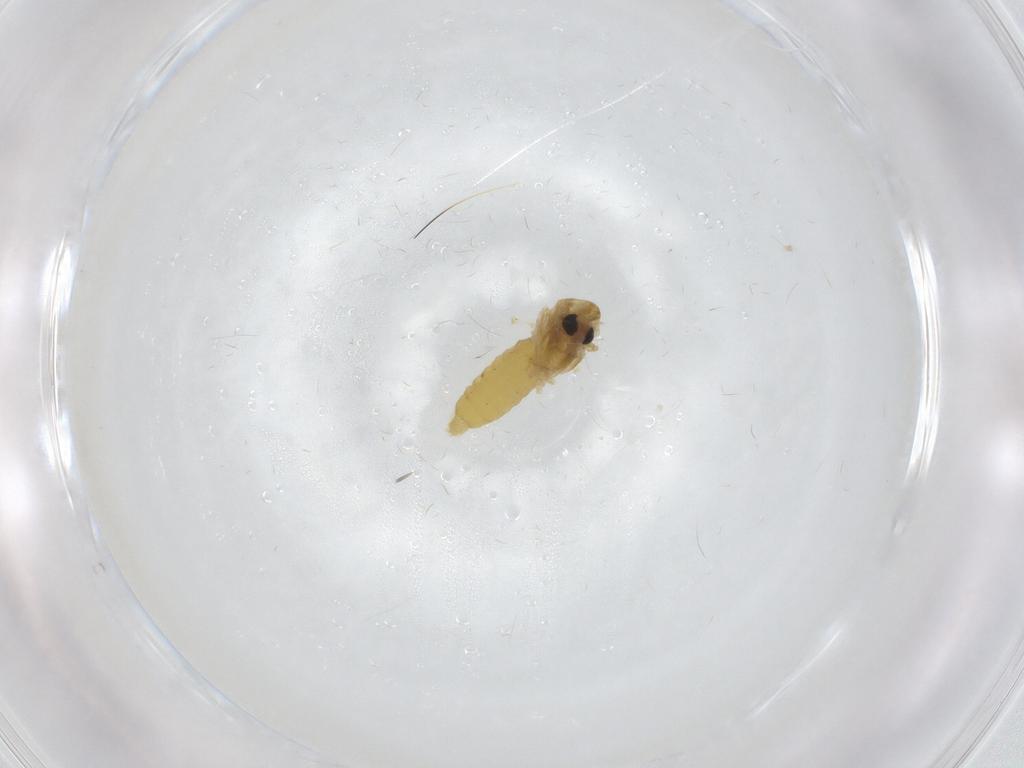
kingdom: Animalia
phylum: Arthropoda
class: Insecta
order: Diptera
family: Chironomidae
